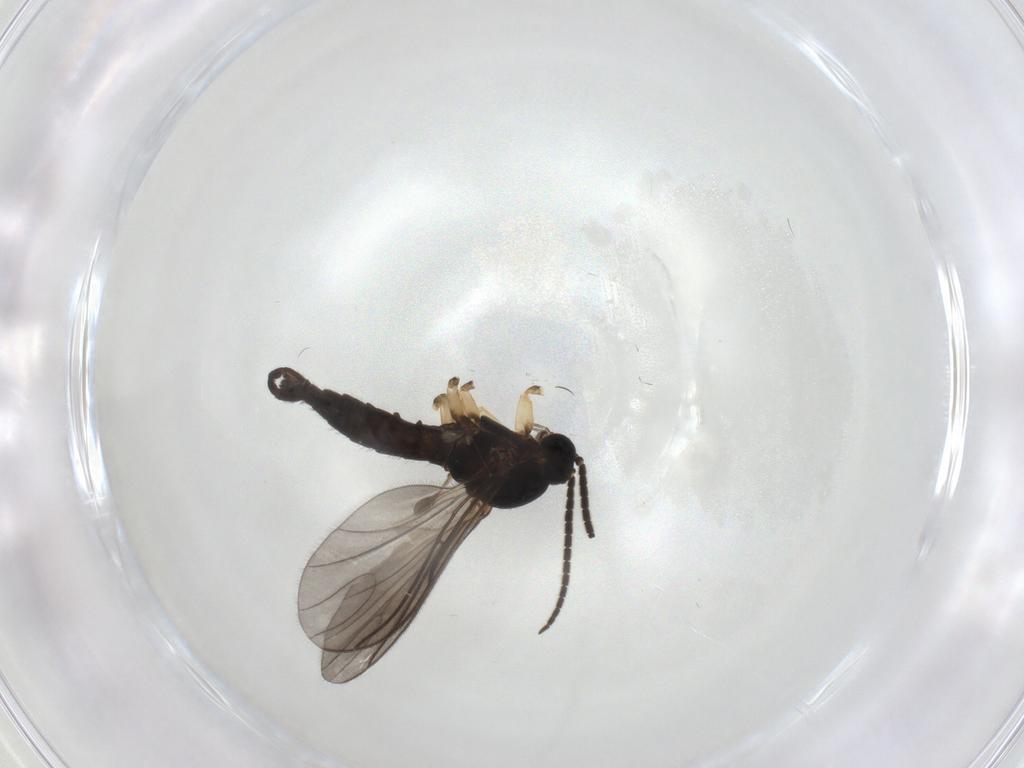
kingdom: Animalia
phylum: Arthropoda
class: Insecta
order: Diptera
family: Sciaridae
